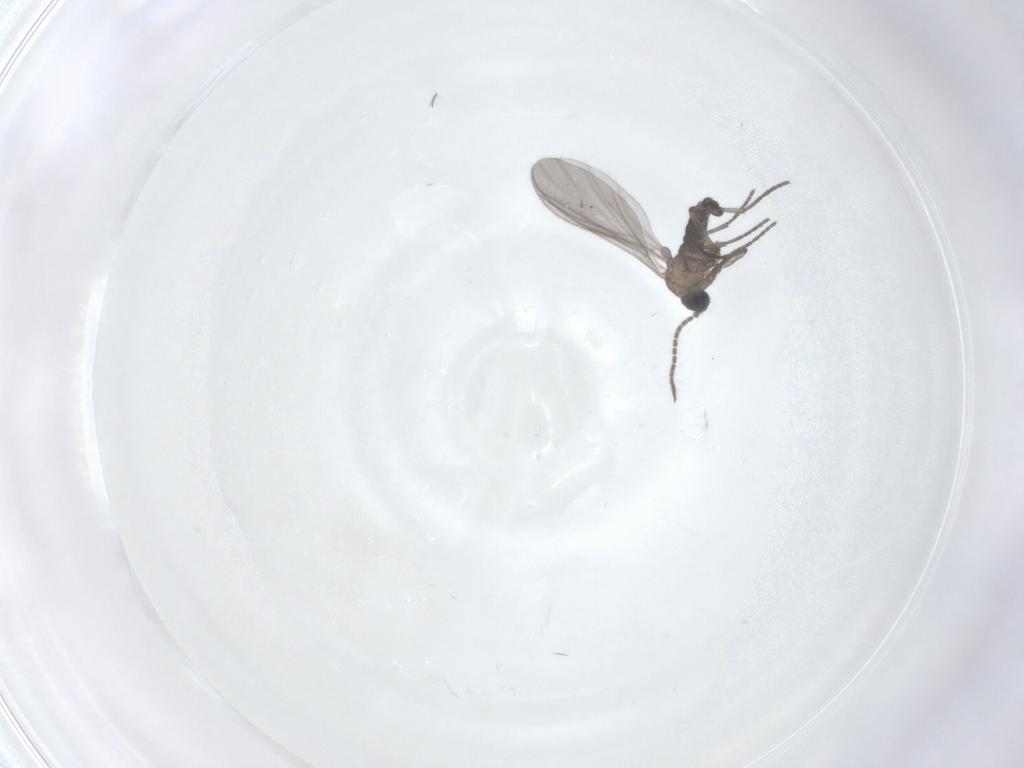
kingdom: Animalia
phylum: Arthropoda
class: Insecta
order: Diptera
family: Sciaridae
